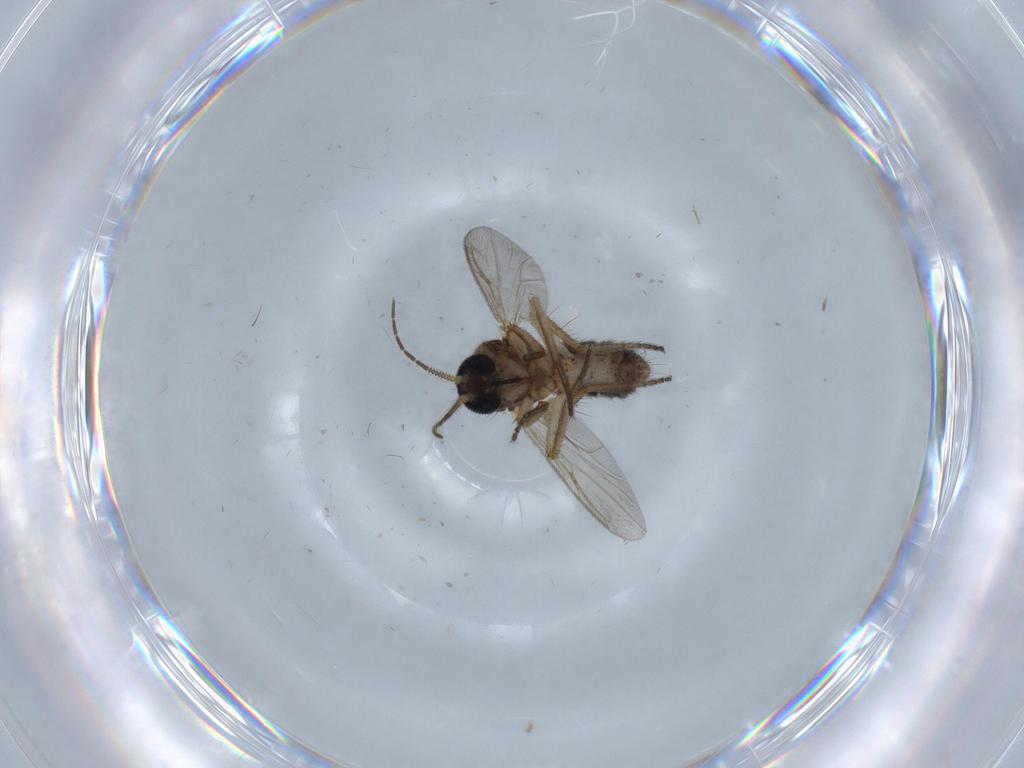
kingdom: Animalia
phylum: Arthropoda
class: Insecta
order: Diptera
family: Ceratopogonidae
